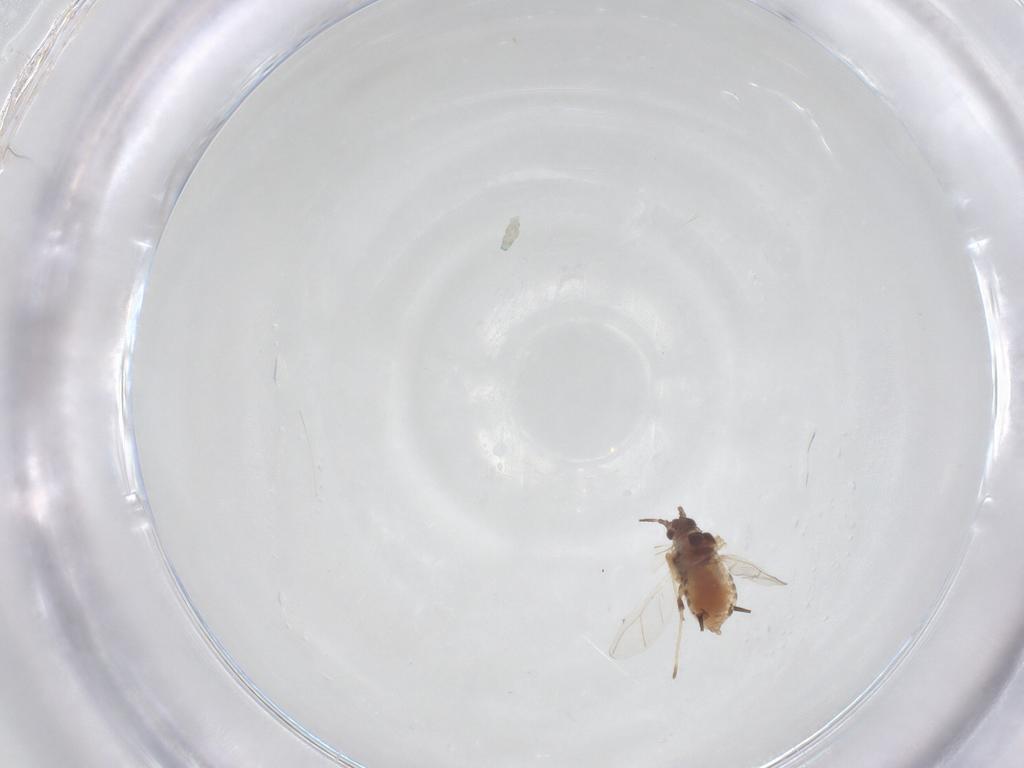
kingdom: Animalia
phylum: Arthropoda
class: Insecta
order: Hemiptera
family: Aphididae
